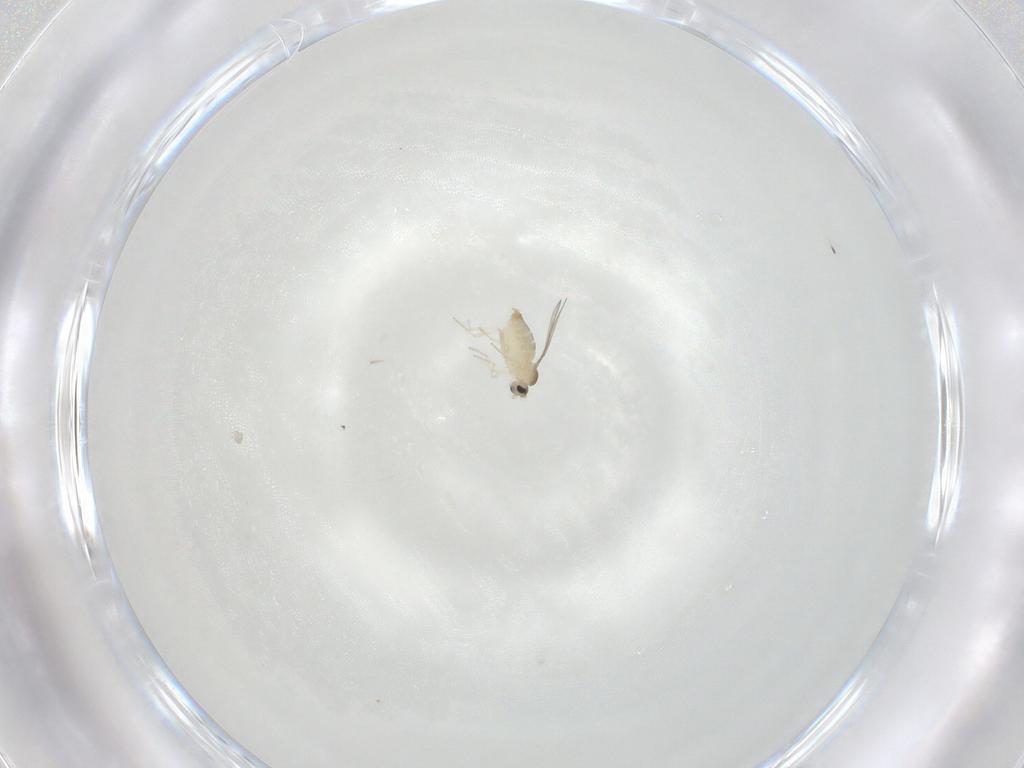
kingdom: Animalia
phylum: Arthropoda
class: Insecta
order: Diptera
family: Cecidomyiidae
